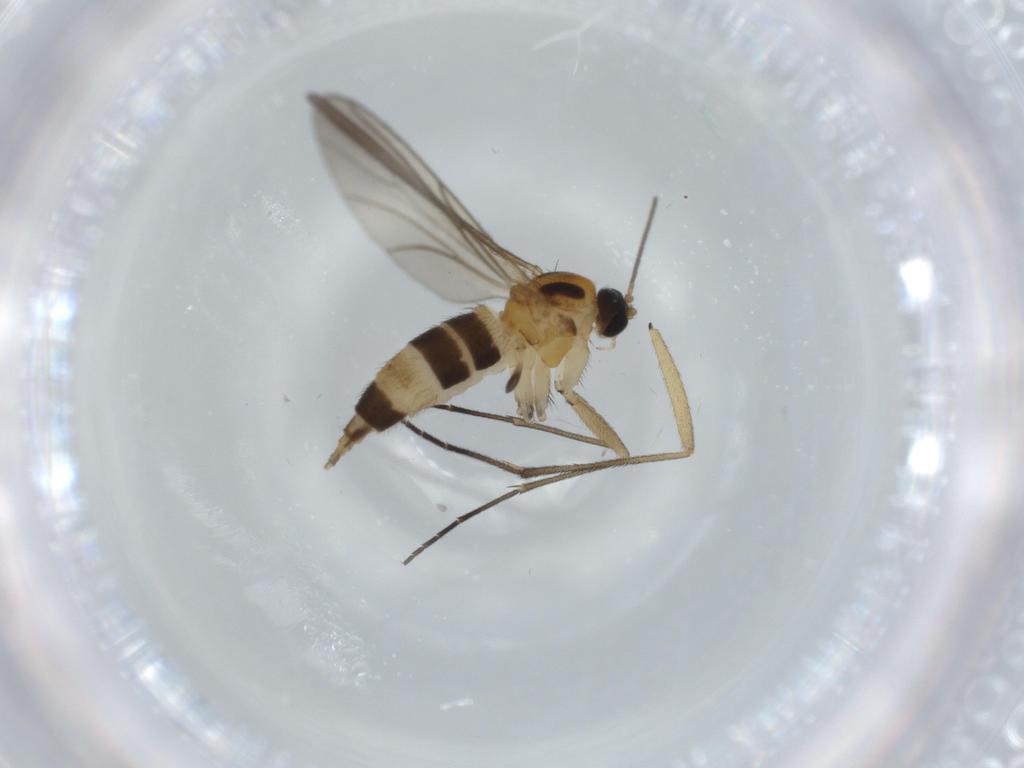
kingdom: Animalia
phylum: Arthropoda
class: Insecta
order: Diptera
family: Sciaridae
